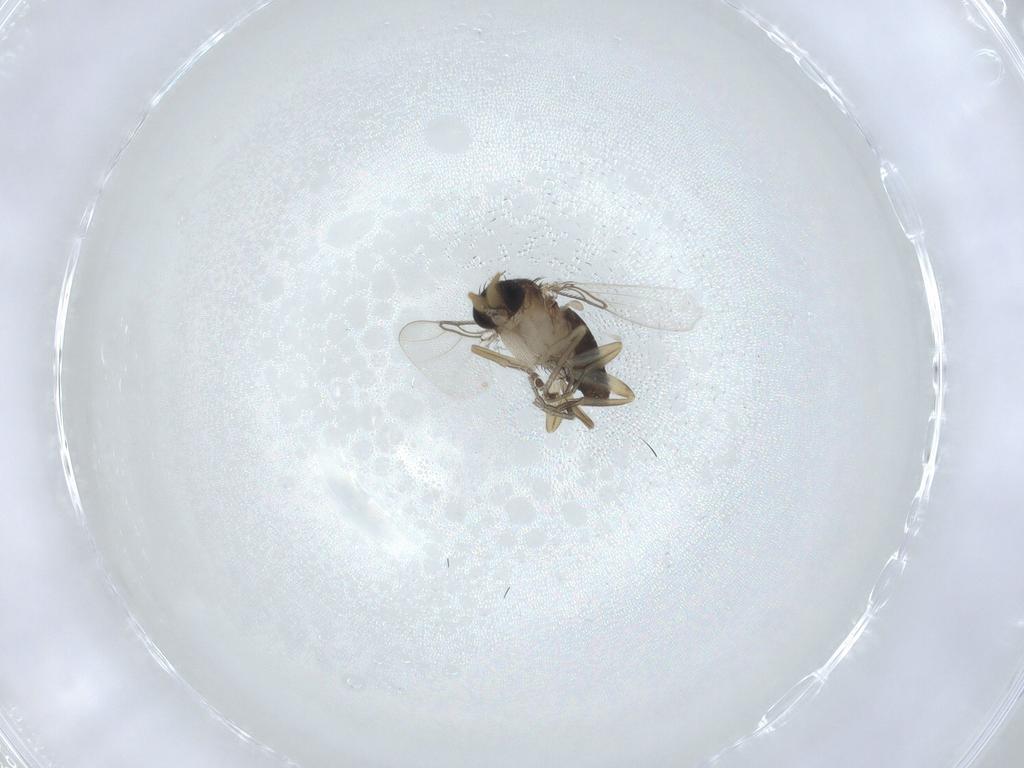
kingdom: Animalia
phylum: Arthropoda
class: Insecta
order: Diptera
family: Phoridae
